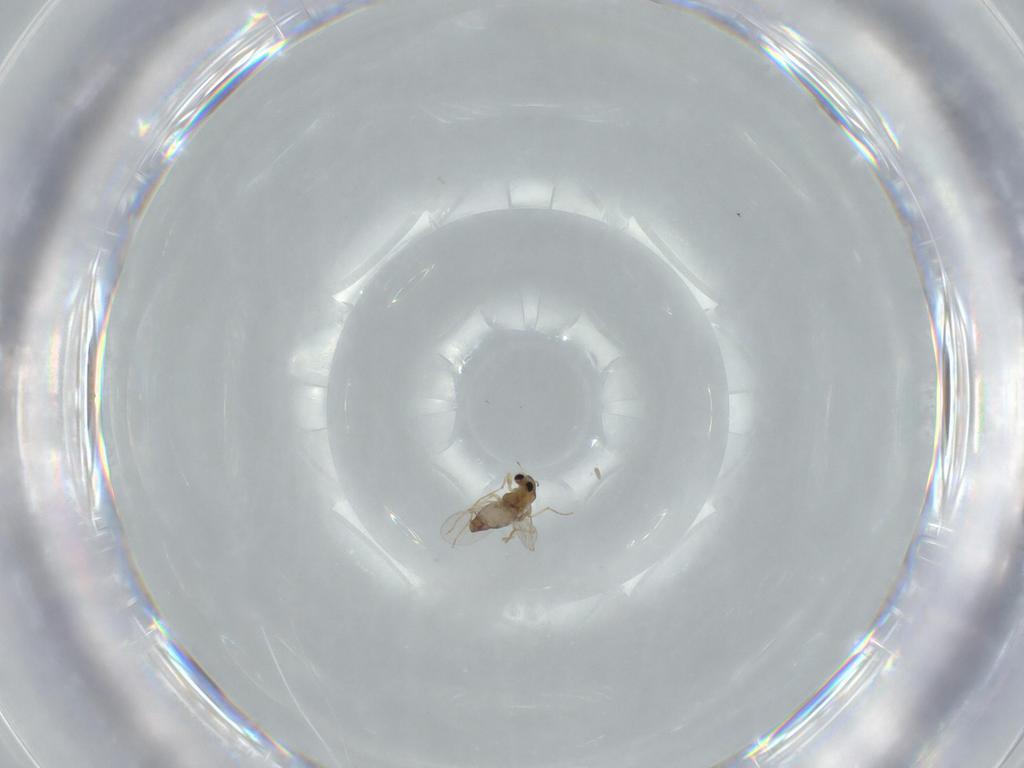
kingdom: Animalia
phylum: Arthropoda
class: Insecta
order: Diptera
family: Chironomidae
